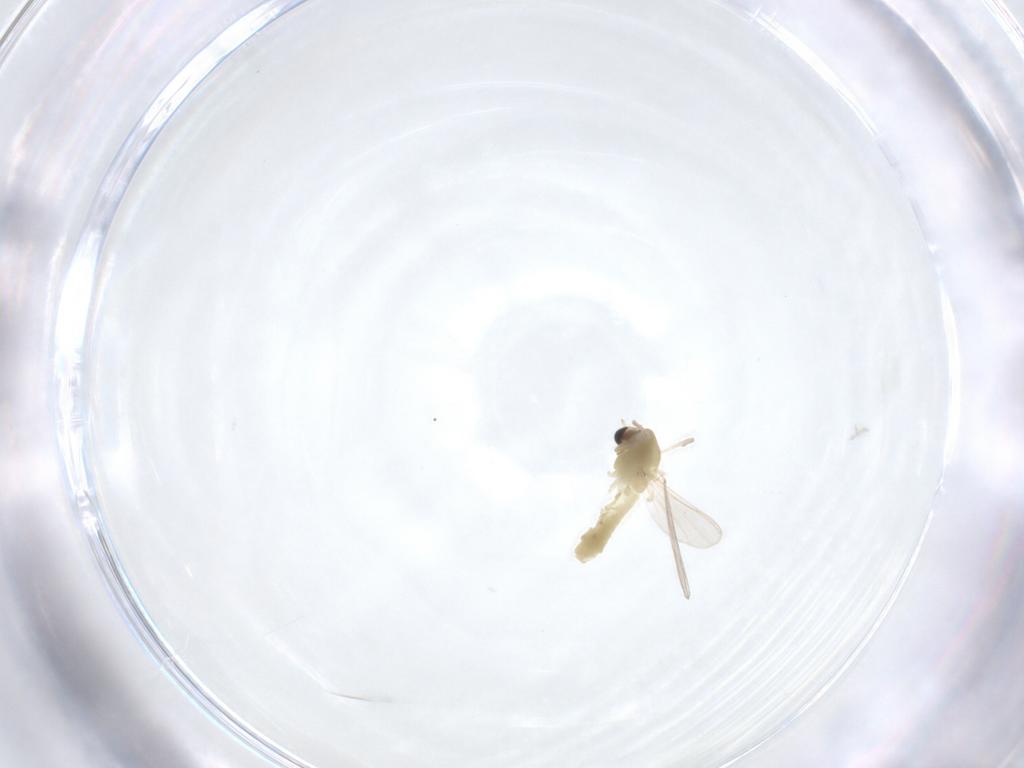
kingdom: Animalia
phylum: Arthropoda
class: Insecta
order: Diptera
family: Chironomidae
